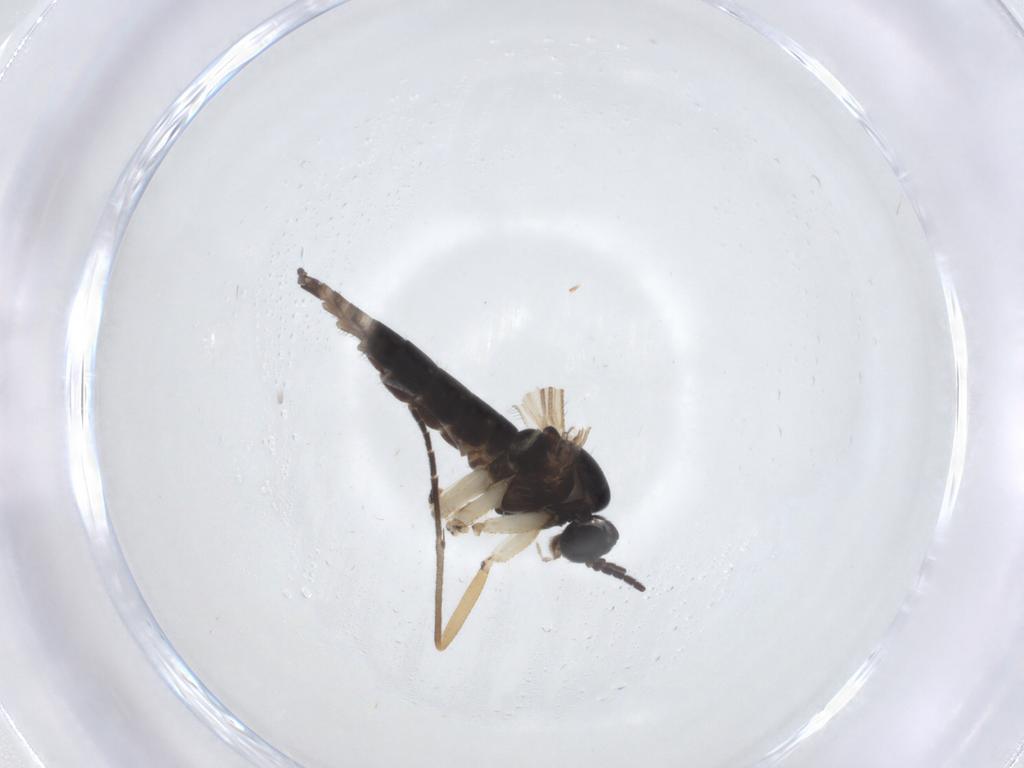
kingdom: Animalia
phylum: Arthropoda
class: Insecta
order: Diptera
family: Sciaridae
